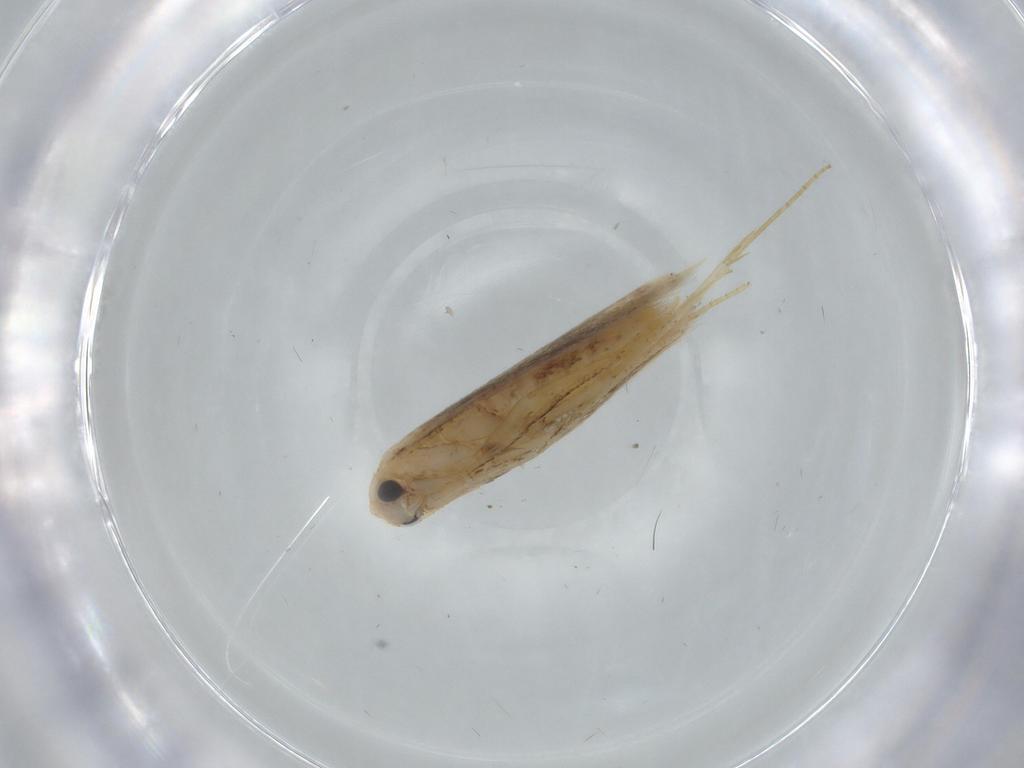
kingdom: Animalia
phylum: Arthropoda
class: Insecta
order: Lepidoptera
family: Bedelliidae
